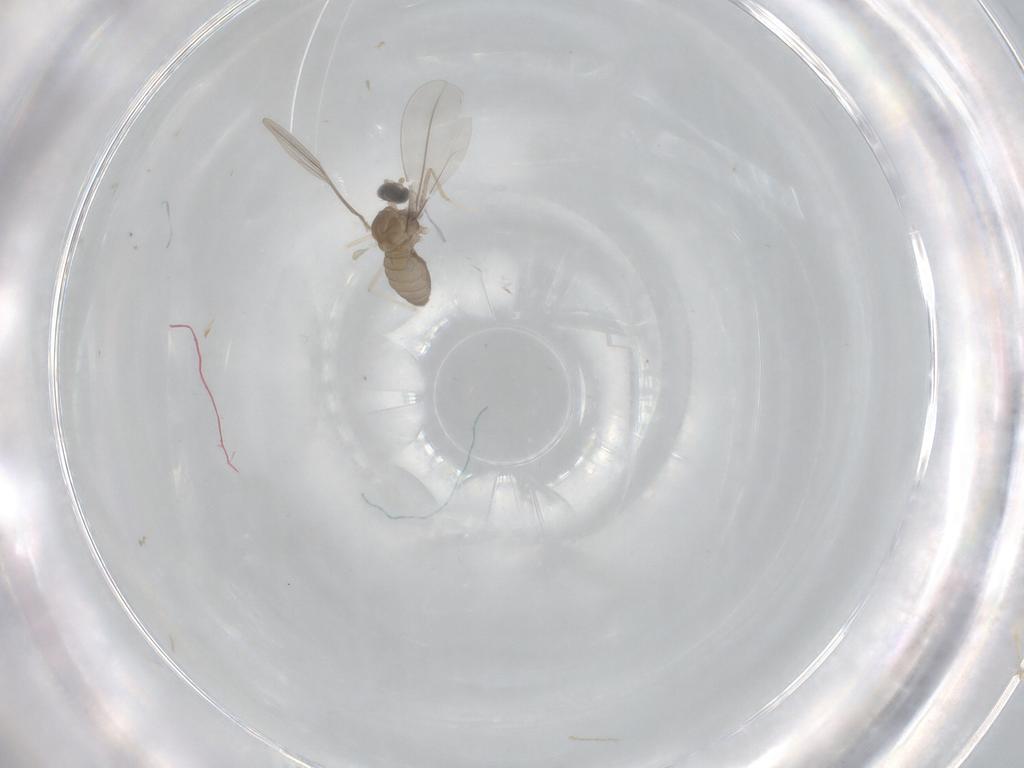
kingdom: Animalia
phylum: Arthropoda
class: Insecta
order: Diptera
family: Cecidomyiidae
